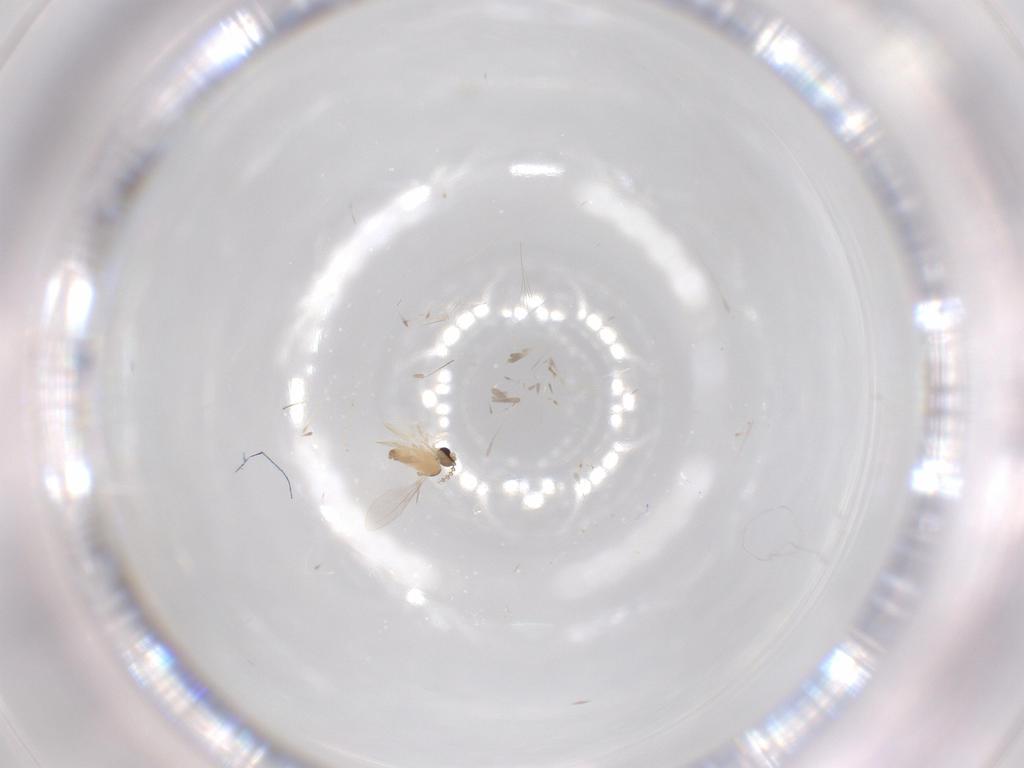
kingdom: Animalia
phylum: Arthropoda
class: Insecta
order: Diptera
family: Cecidomyiidae
